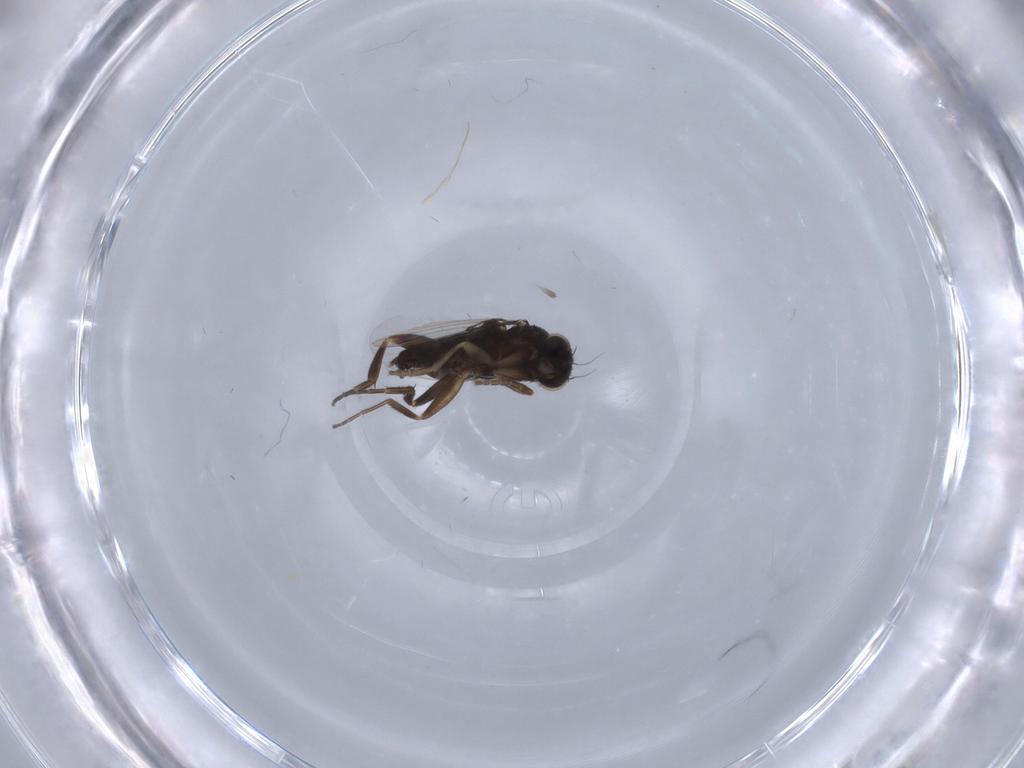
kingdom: Animalia
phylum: Arthropoda
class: Insecta
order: Diptera
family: Phoridae
